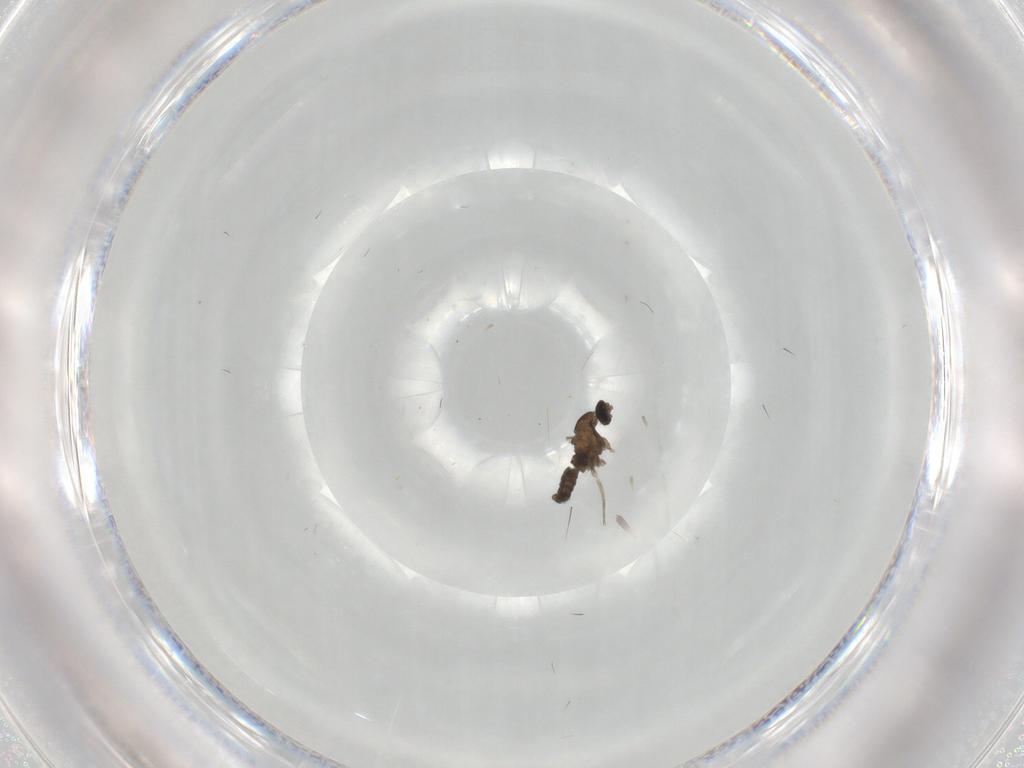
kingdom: Animalia
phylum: Arthropoda
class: Insecta
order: Diptera
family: Cecidomyiidae
